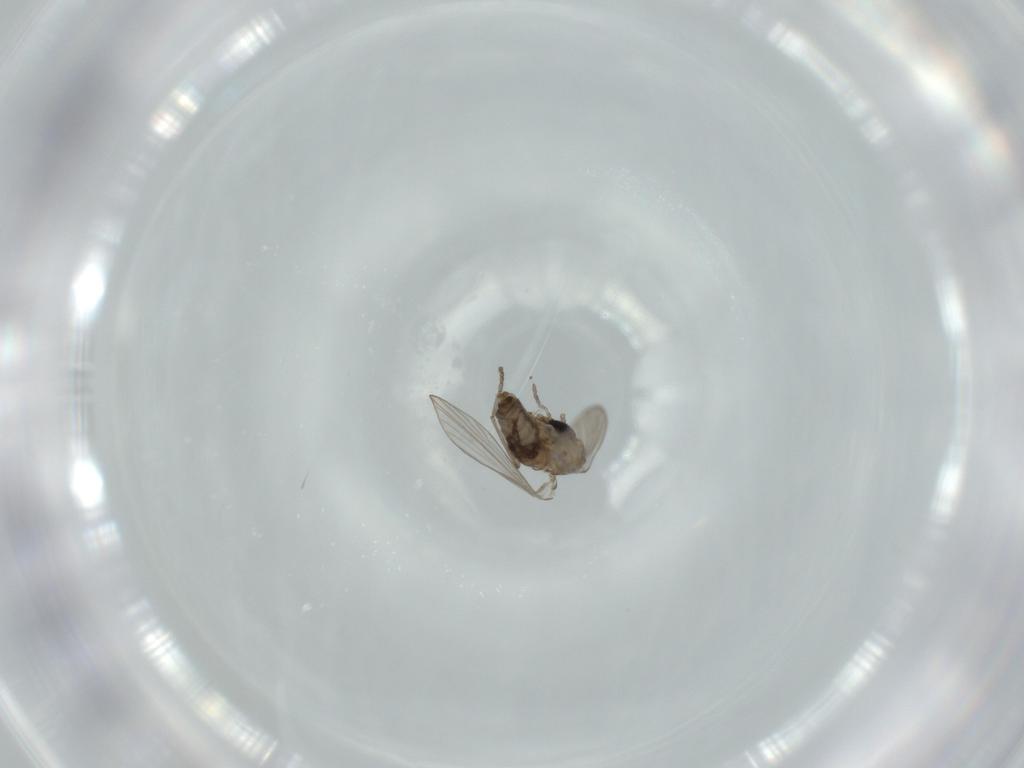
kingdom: Animalia
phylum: Arthropoda
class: Insecta
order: Diptera
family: Psychodidae
